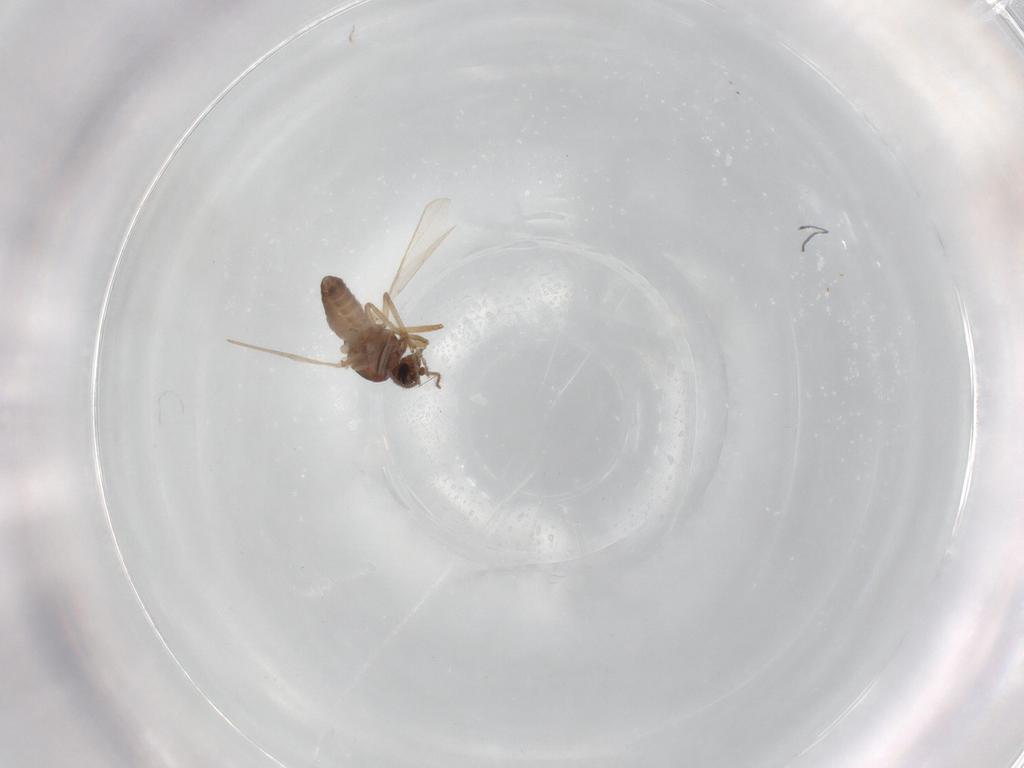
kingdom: Animalia
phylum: Arthropoda
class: Insecta
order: Diptera
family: Ceratopogonidae
